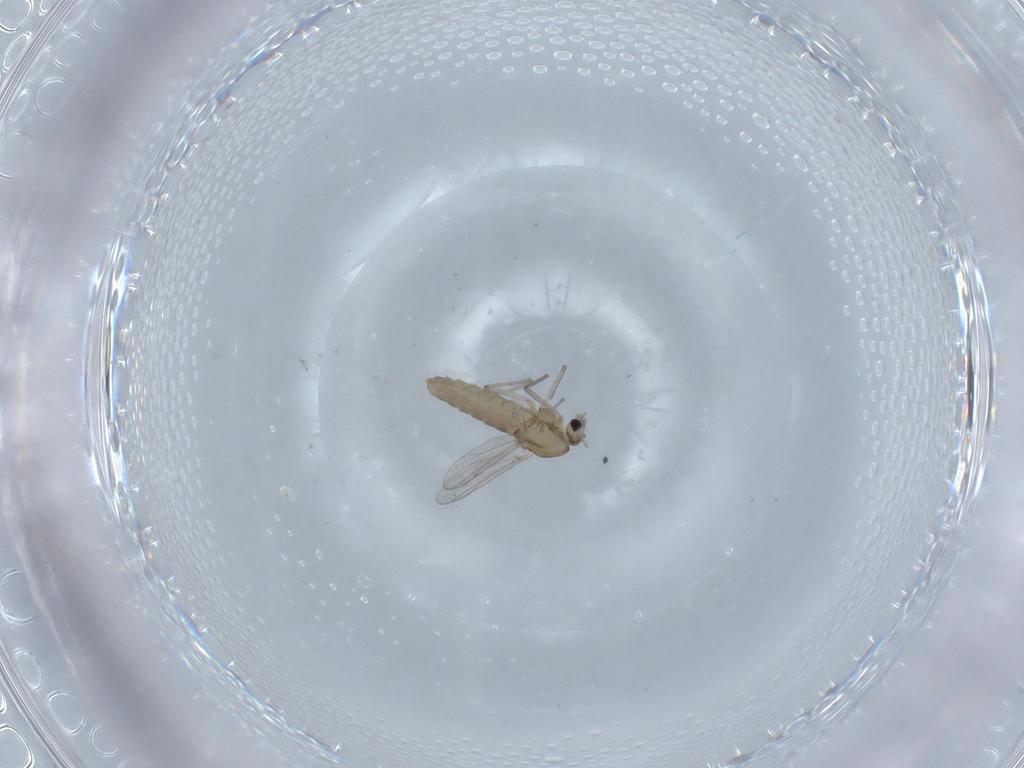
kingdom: Animalia
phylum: Arthropoda
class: Insecta
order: Diptera
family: Chironomidae
